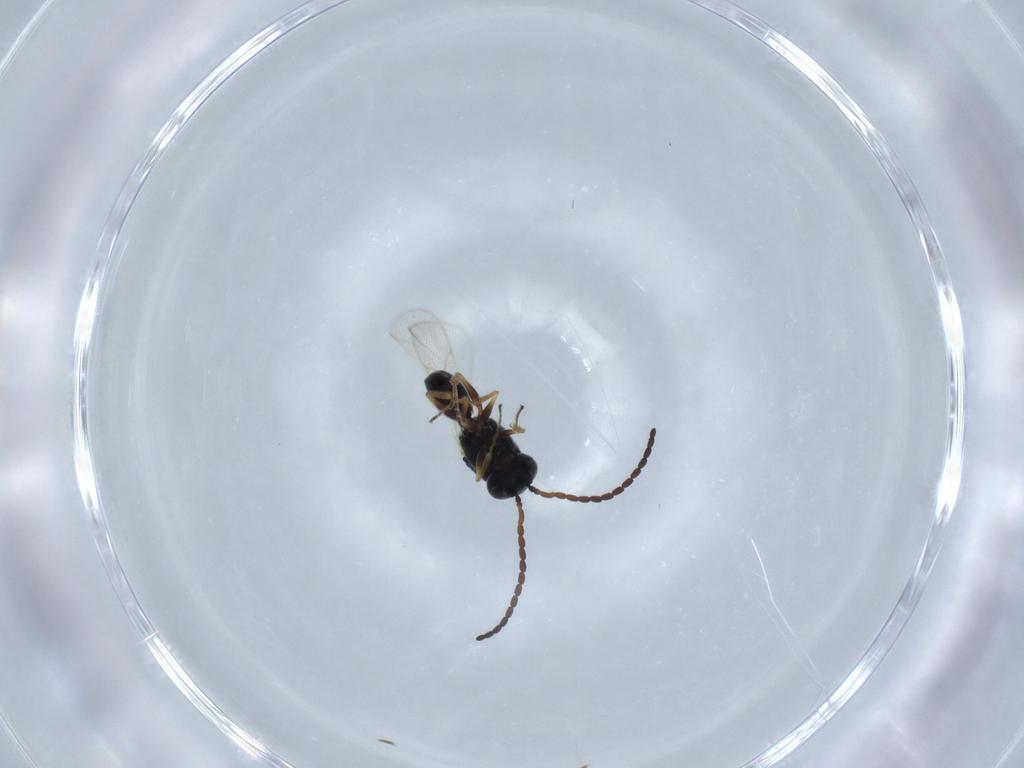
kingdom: Animalia
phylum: Arthropoda
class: Insecta
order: Hymenoptera
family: Figitidae
